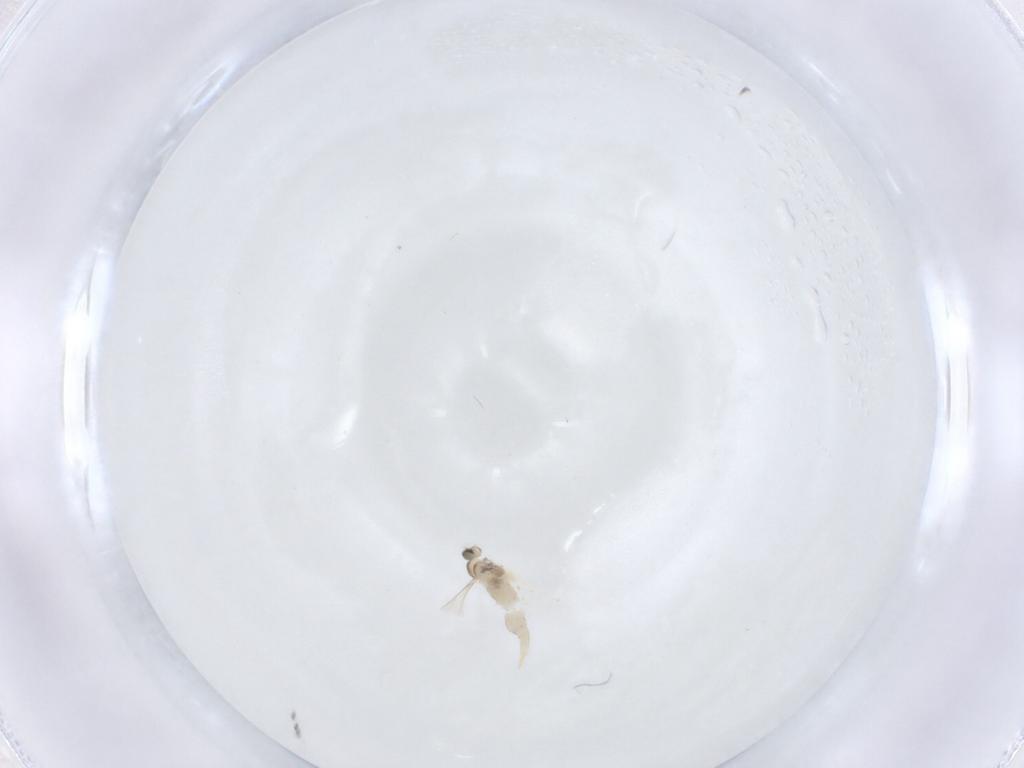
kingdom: Animalia
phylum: Arthropoda
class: Insecta
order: Diptera
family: Cecidomyiidae
